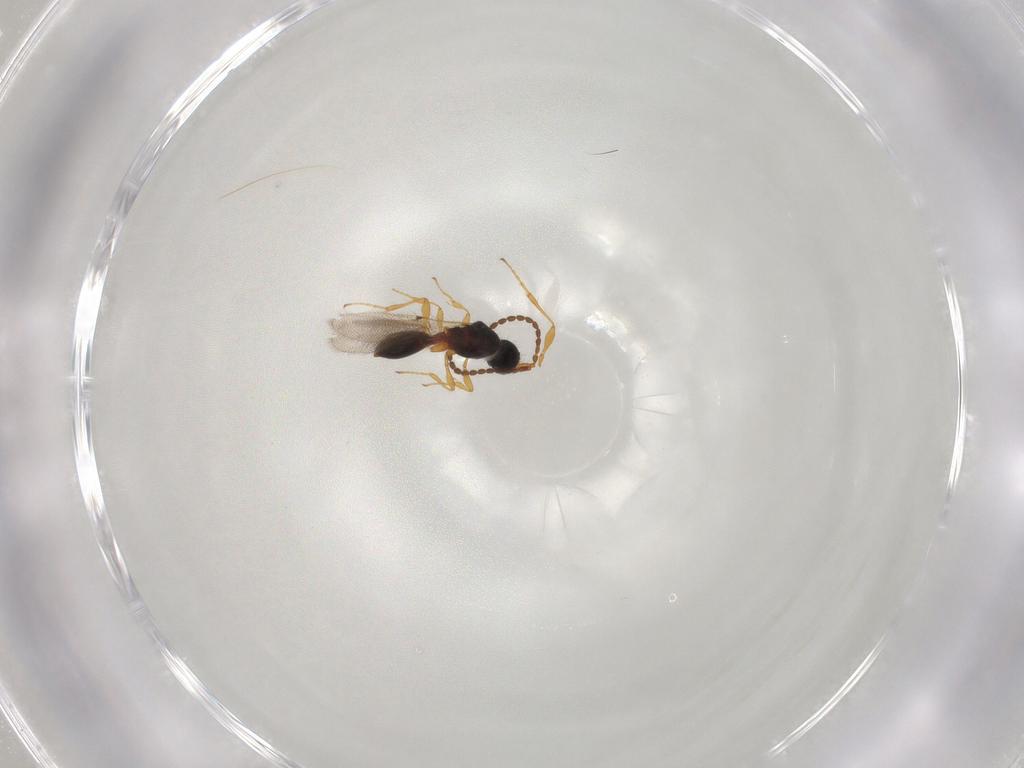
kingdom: Animalia
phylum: Arthropoda
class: Insecta
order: Hymenoptera
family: Diapriidae
